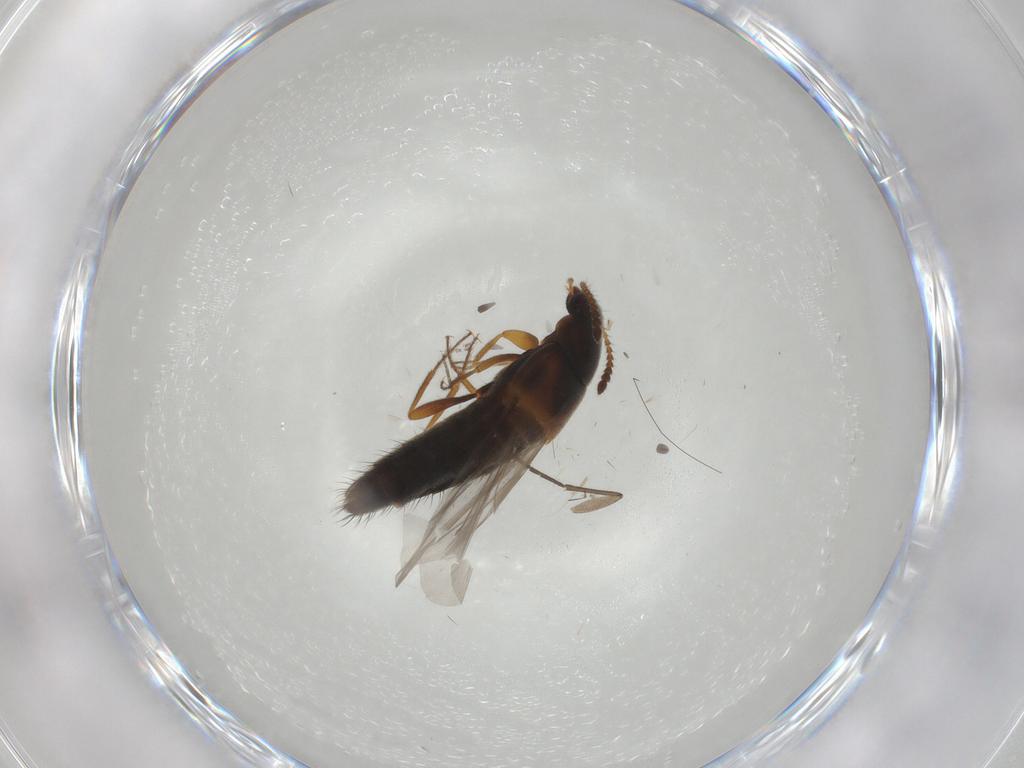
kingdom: Animalia
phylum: Arthropoda
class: Insecta
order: Coleoptera
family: Staphylinidae
